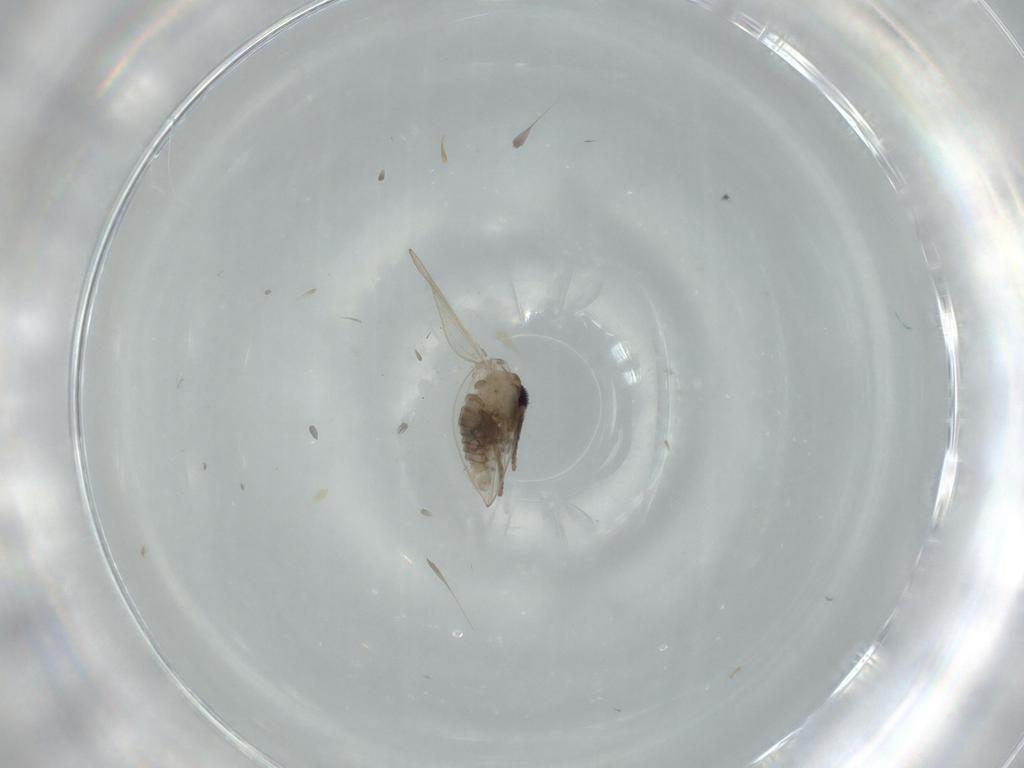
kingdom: Animalia
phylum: Arthropoda
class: Insecta
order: Diptera
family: Psychodidae
